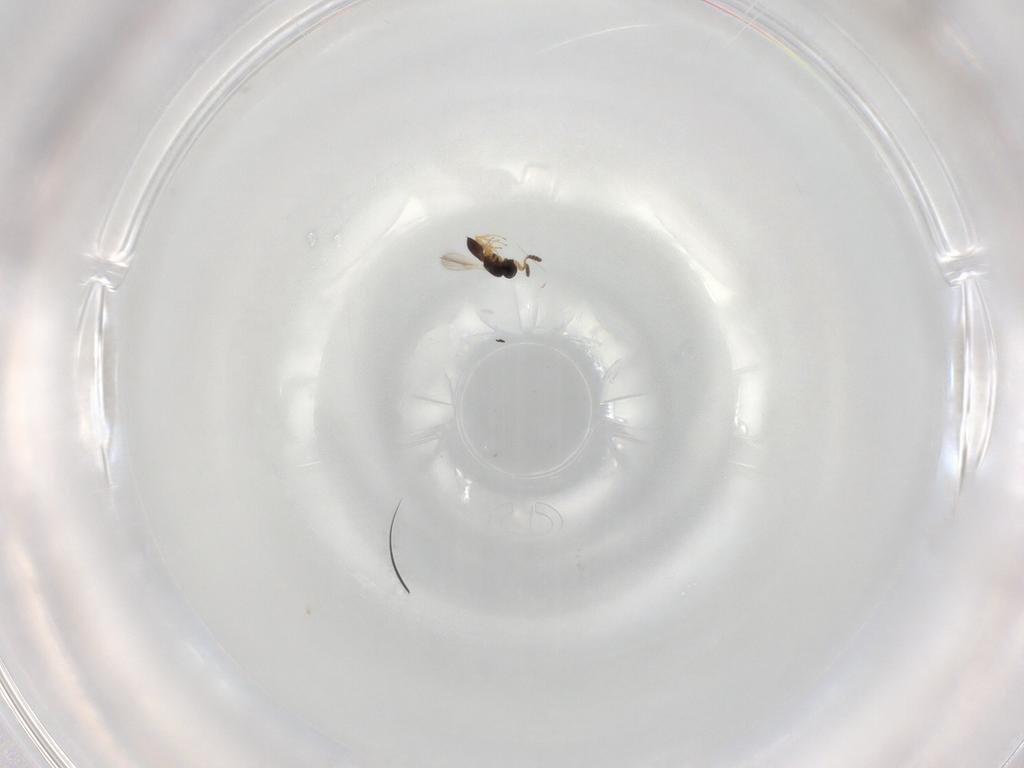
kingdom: Animalia
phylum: Arthropoda
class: Insecta
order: Hymenoptera
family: Scelionidae
